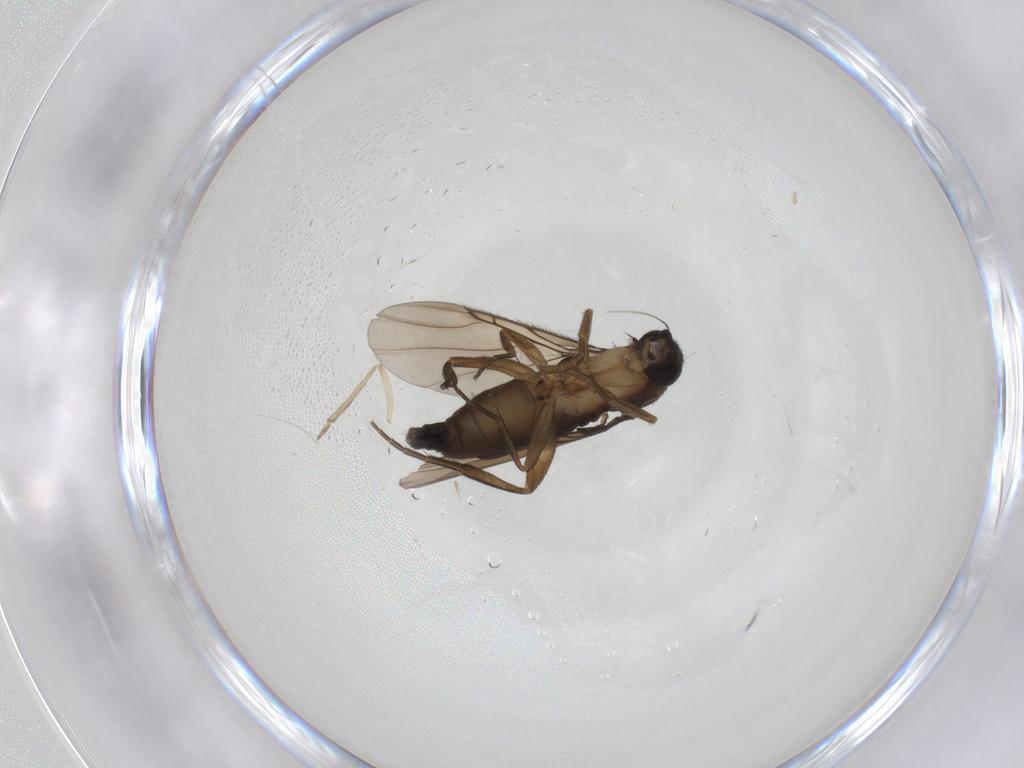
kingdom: Animalia
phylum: Arthropoda
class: Insecta
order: Diptera
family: Phoridae
